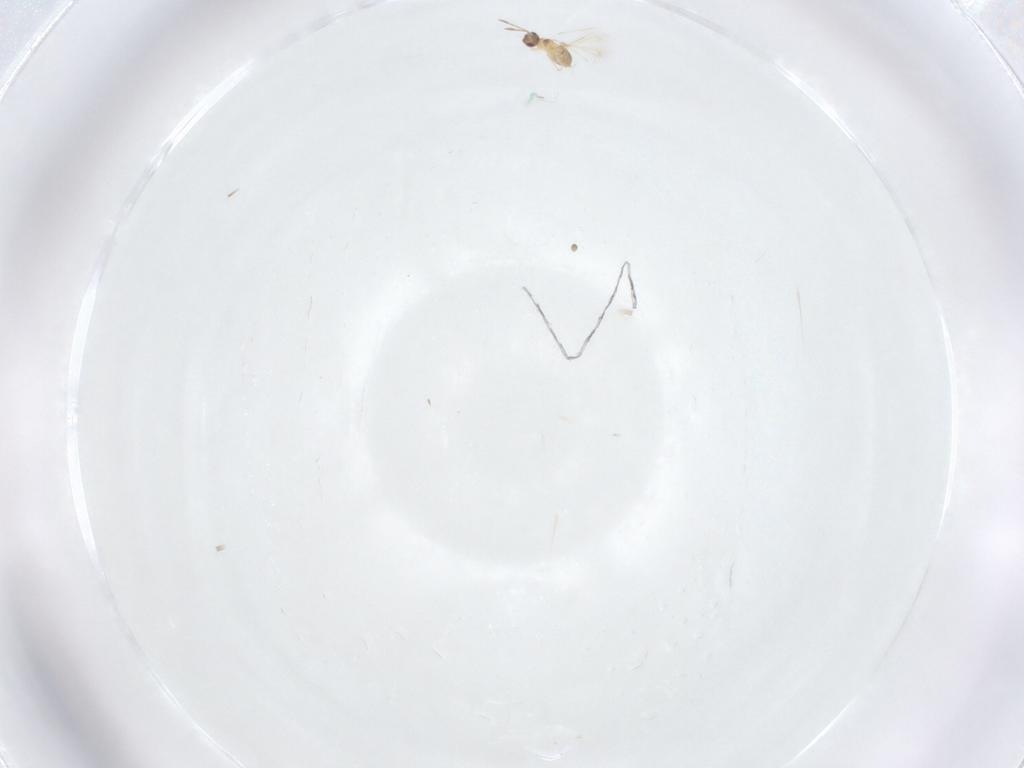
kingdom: Animalia
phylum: Arthropoda
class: Insecta
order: Hymenoptera
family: Mymaridae
